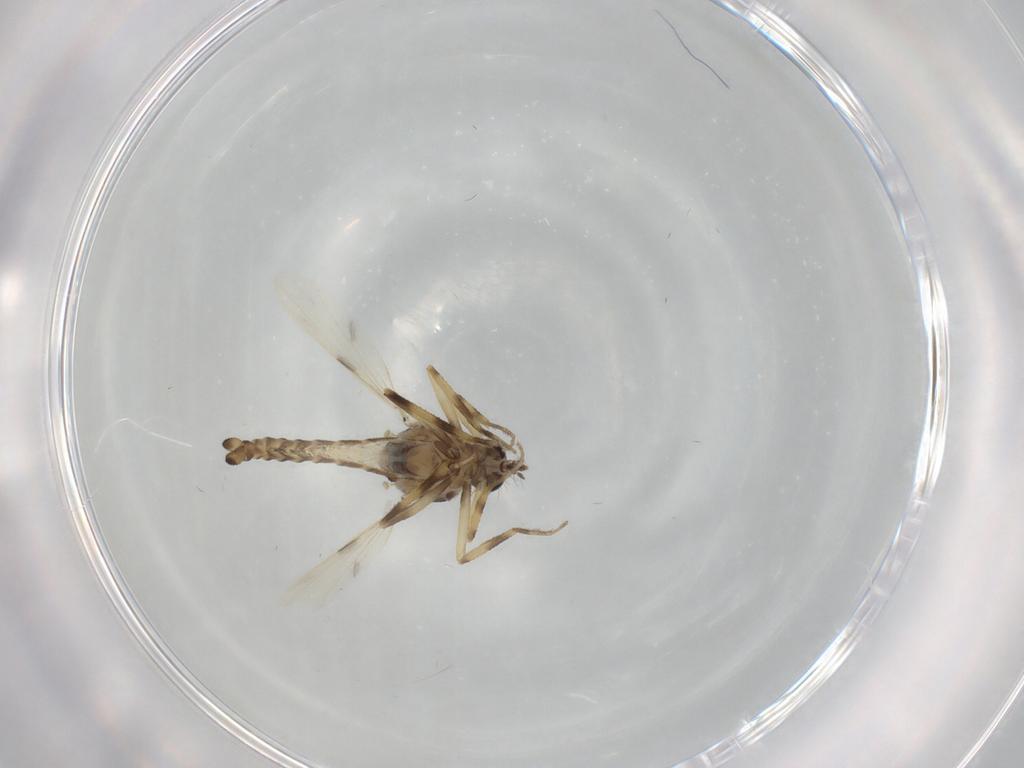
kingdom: Animalia
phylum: Arthropoda
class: Insecta
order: Diptera
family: Ceratopogonidae
